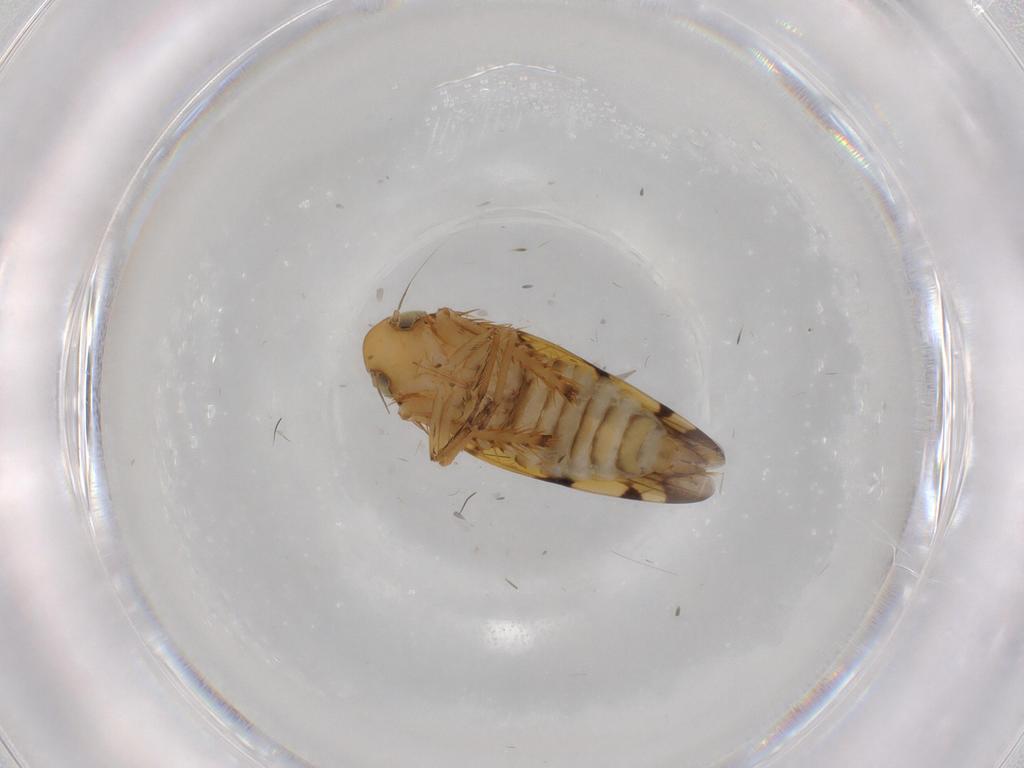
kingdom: Animalia
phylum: Arthropoda
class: Insecta
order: Hemiptera
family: Cicadellidae
